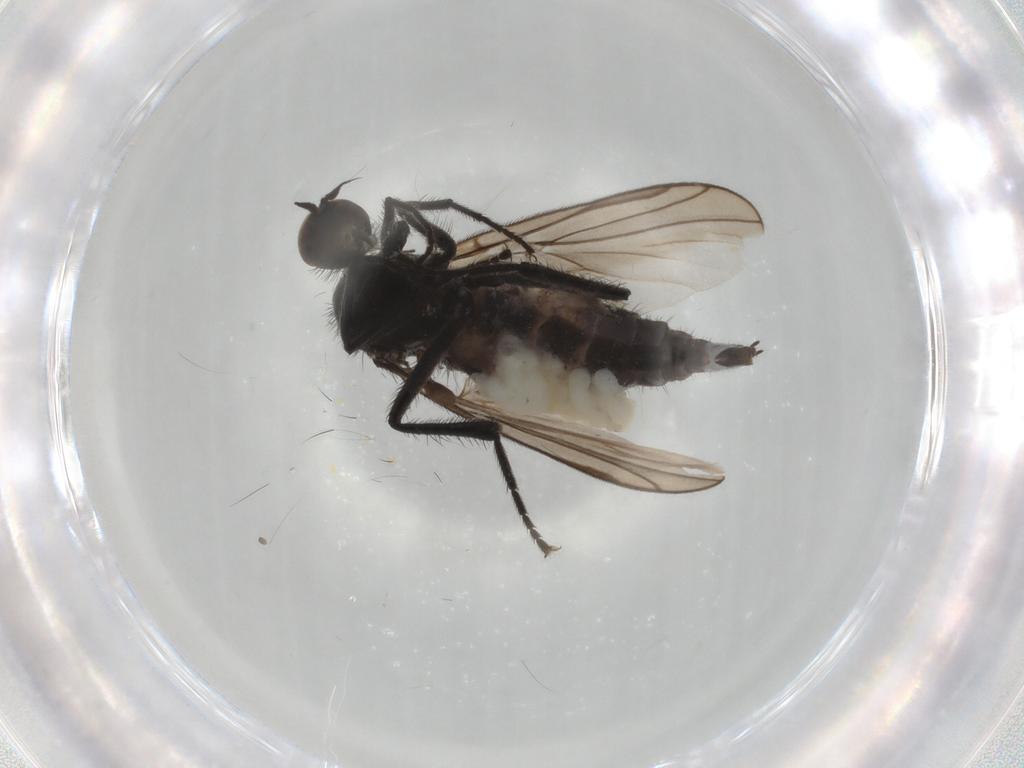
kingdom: Animalia
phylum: Arthropoda
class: Insecta
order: Diptera
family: Hybotidae
